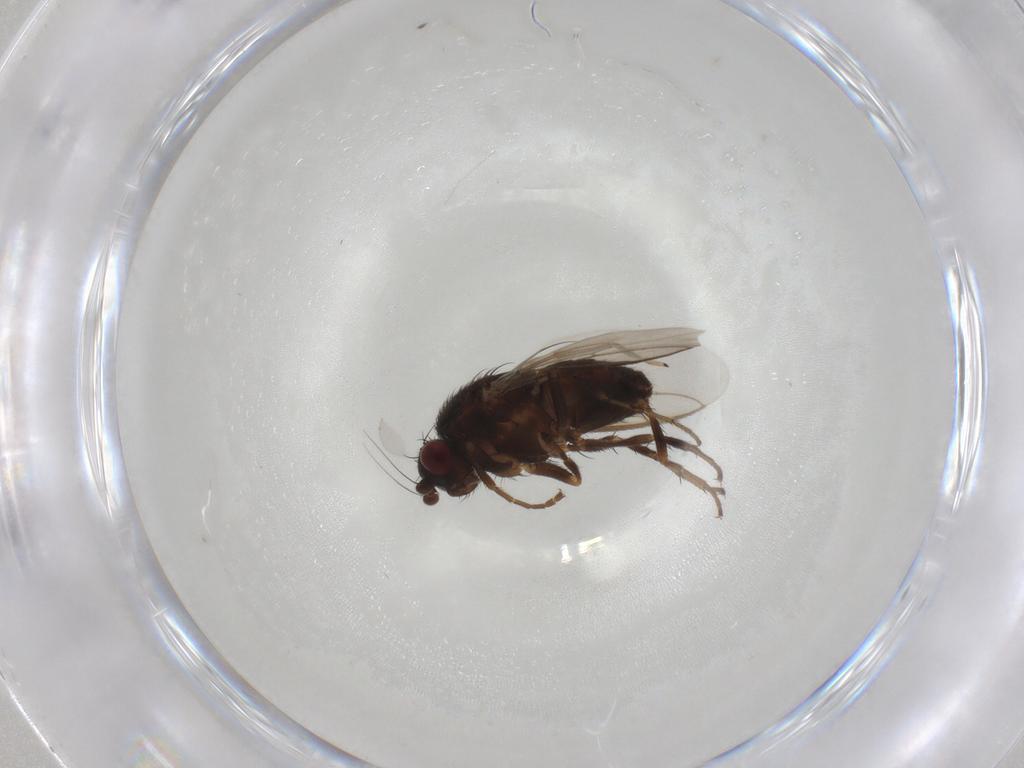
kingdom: Animalia
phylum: Arthropoda
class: Insecta
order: Diptera
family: Sphaeroceridae
